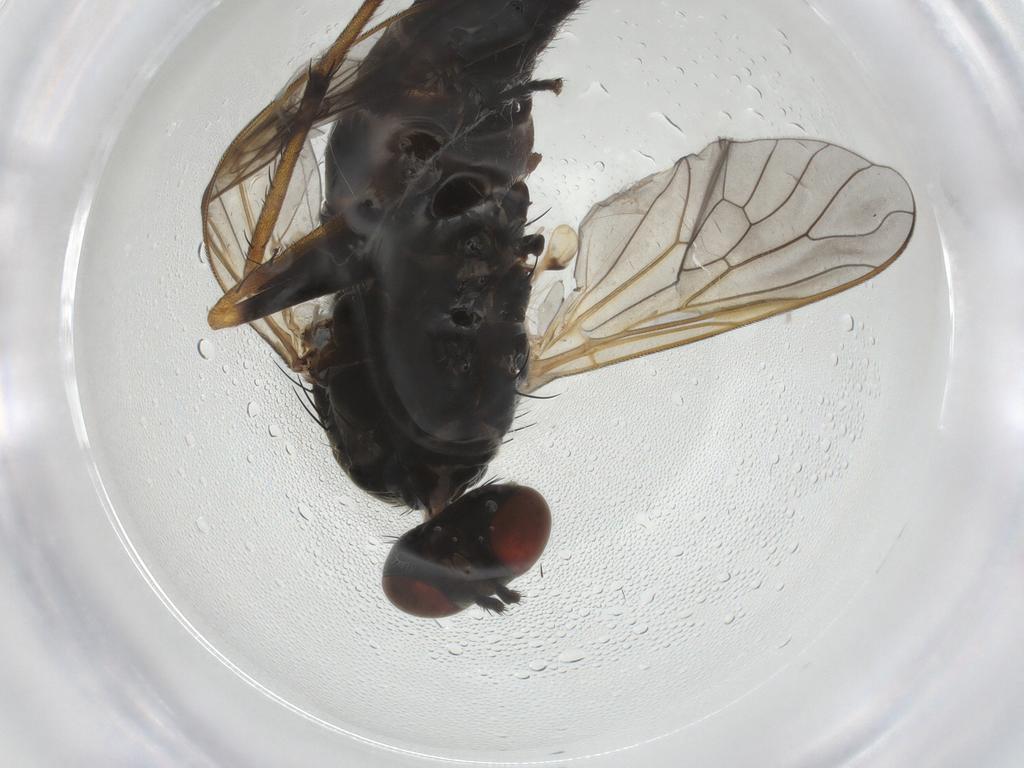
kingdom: Animalia
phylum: Arthropoda
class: Insecta
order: Diptera
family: Therevidae
